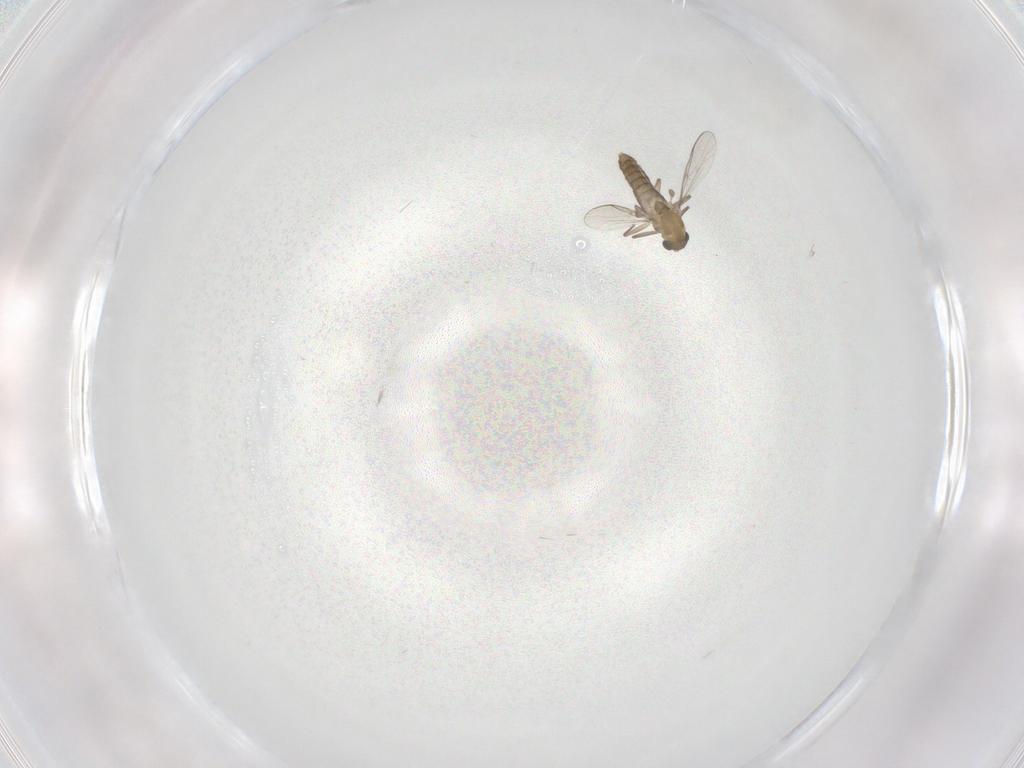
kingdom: Animalia
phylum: Arthropoda
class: Insecta
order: Diptera
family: Chironomidae
